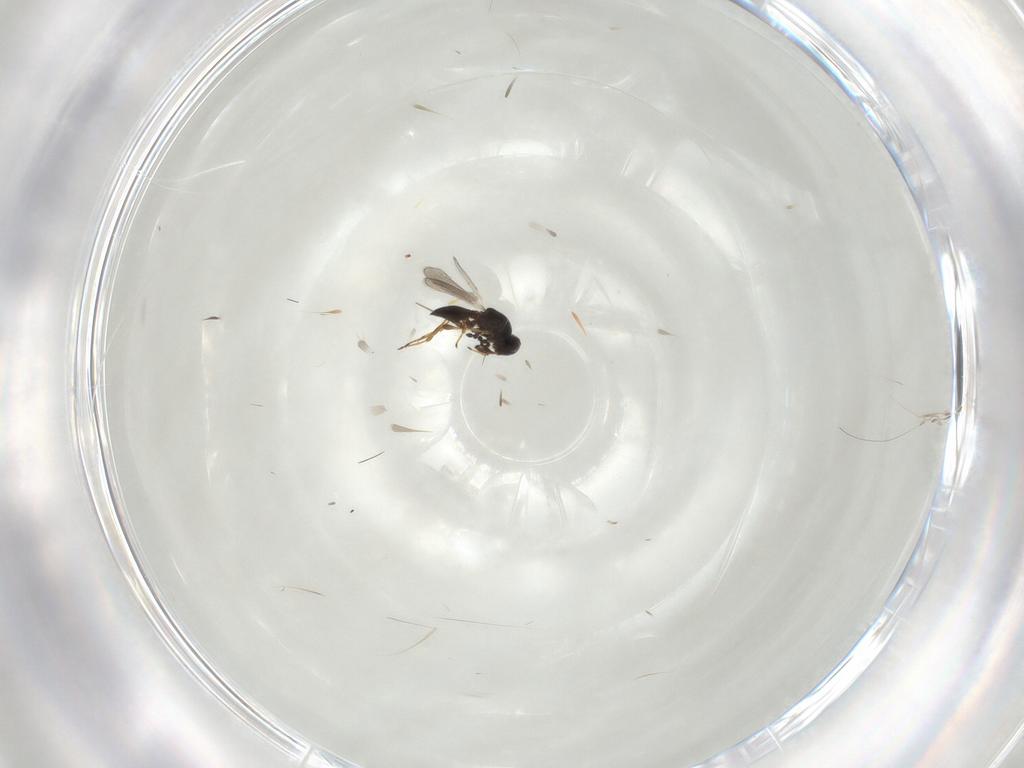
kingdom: Animalia
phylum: Arthropoda
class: Insecta
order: Hymenoptera
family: Platygastridae
